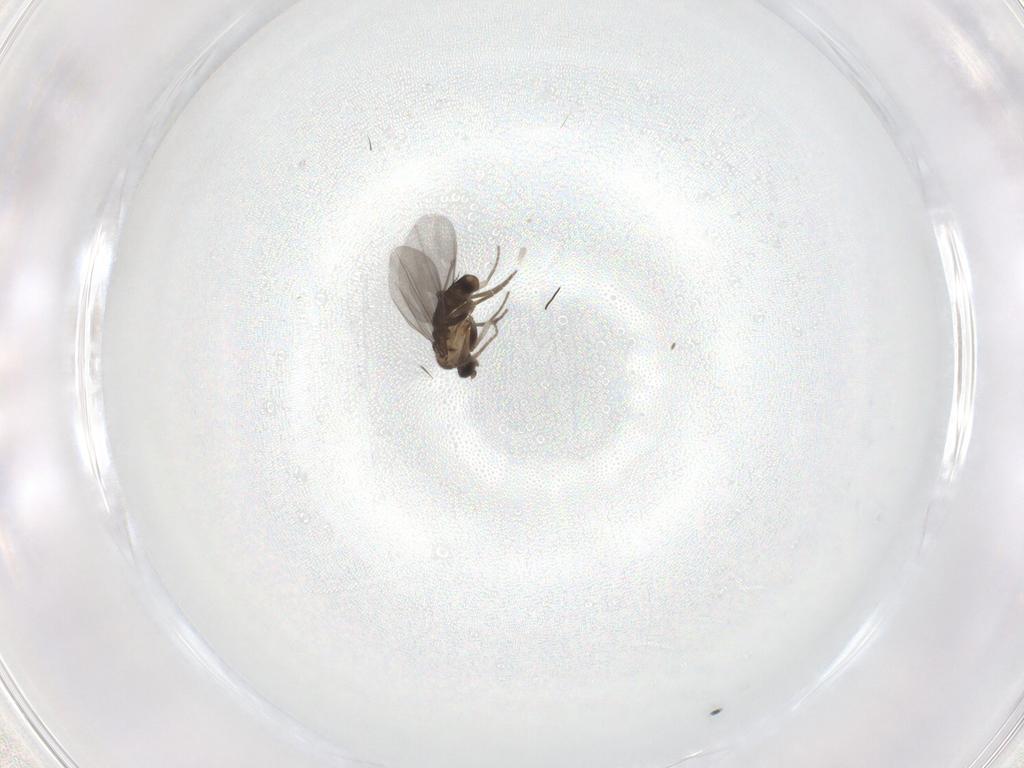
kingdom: Animalia
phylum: Arthropoda
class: Insecta
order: Diptera
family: Phoridae
